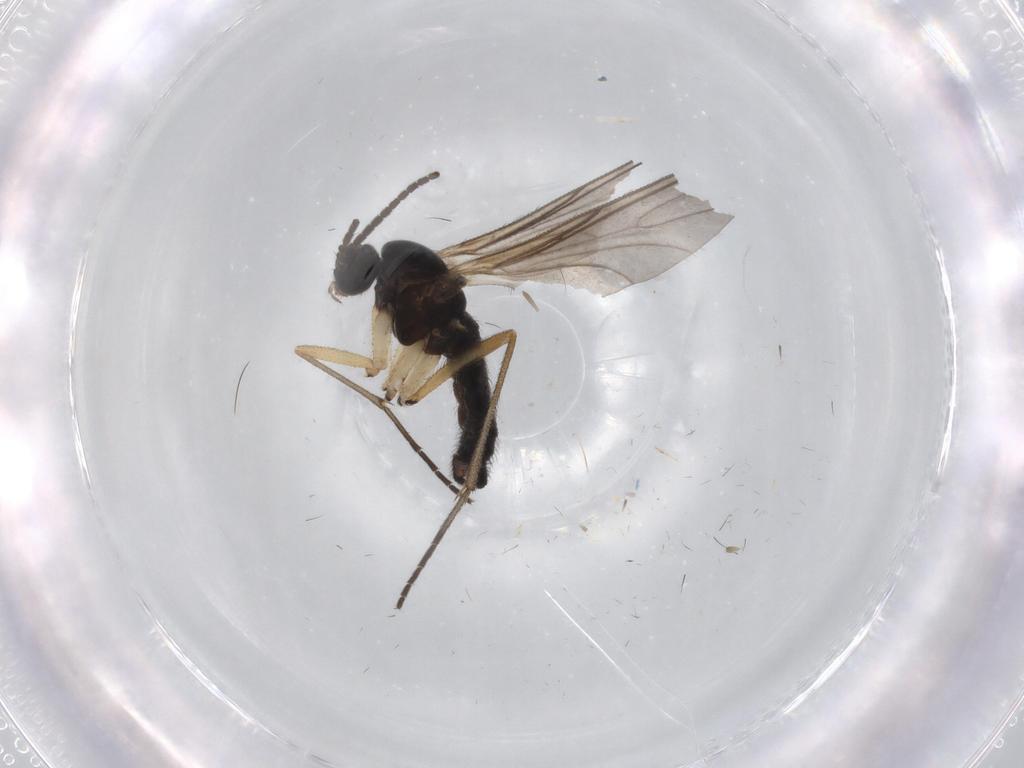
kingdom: Animalia
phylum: Arthropoda
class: Insecta
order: Diptera
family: Sciaridae
